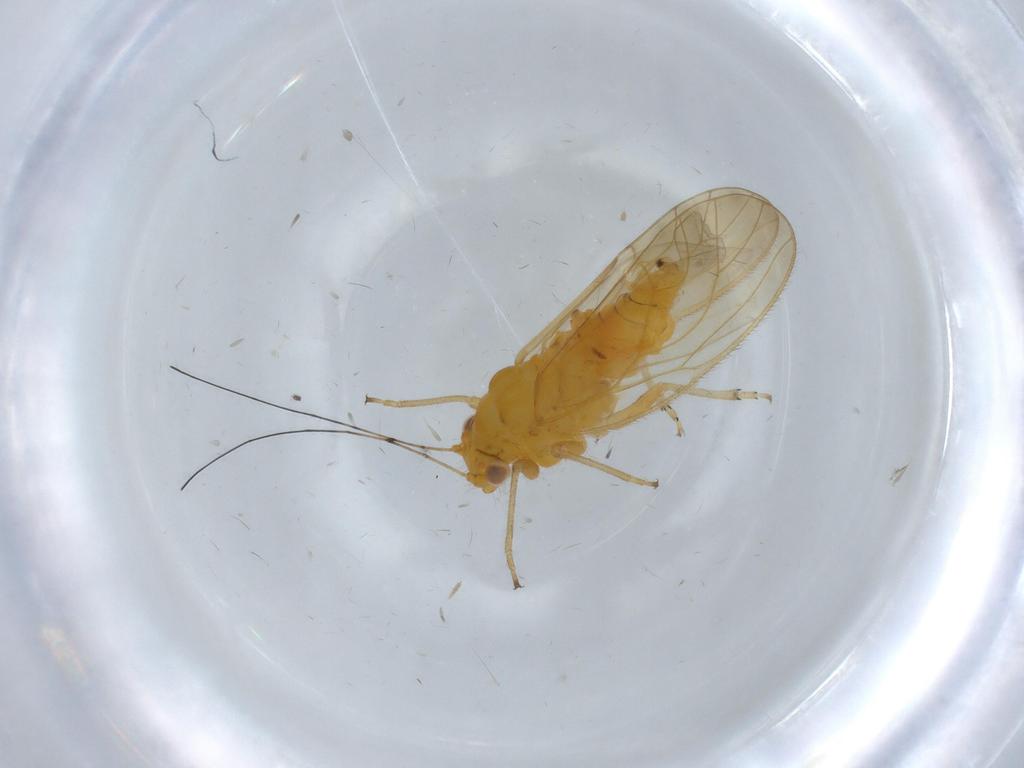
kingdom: Animalia
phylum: Arthropoda
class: Insecta
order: Hemiptera
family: Psyllidae
